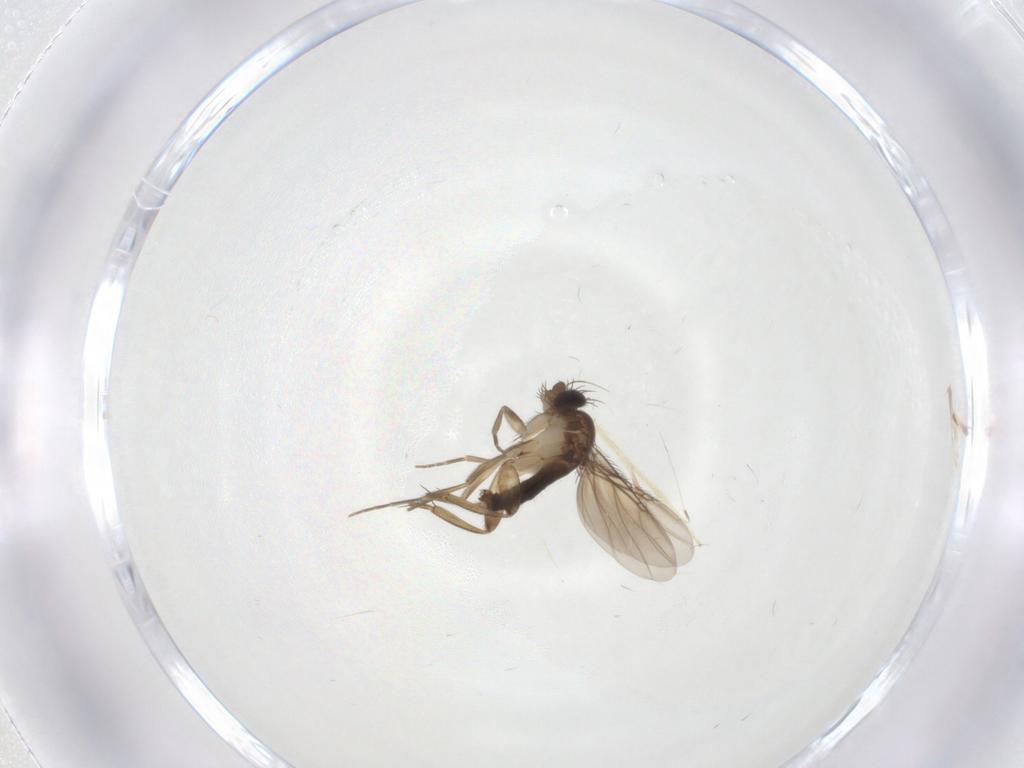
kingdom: Animalia
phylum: Arthropoda
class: Insecta
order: Diptera
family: Phoridae
